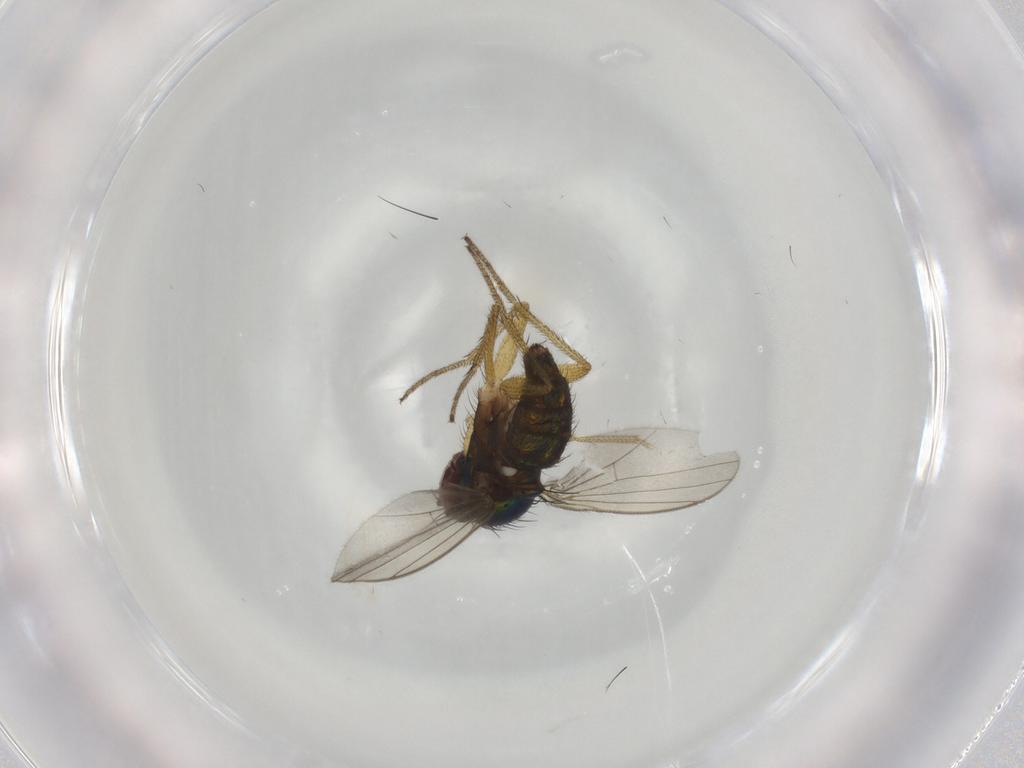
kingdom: Animalia
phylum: Arthropoda
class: Insecta
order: Diptera
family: Dolichopodidae
